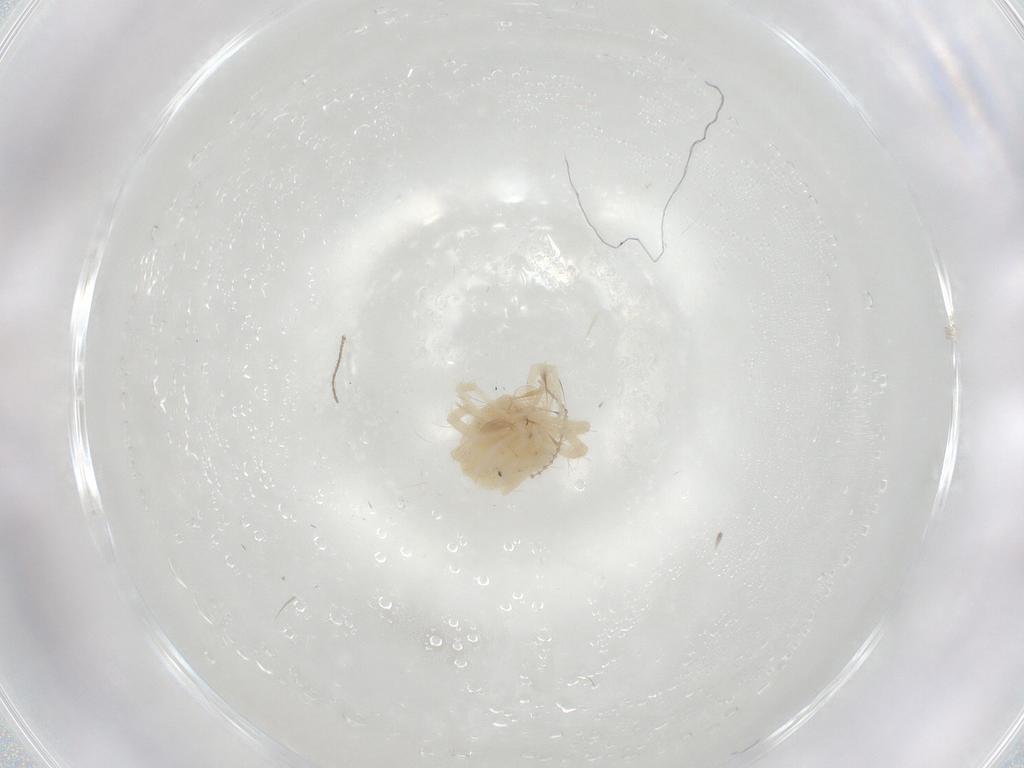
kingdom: Animalia
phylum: Arthropoda
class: Arachnida
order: Trombidiformes
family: Anystidae
